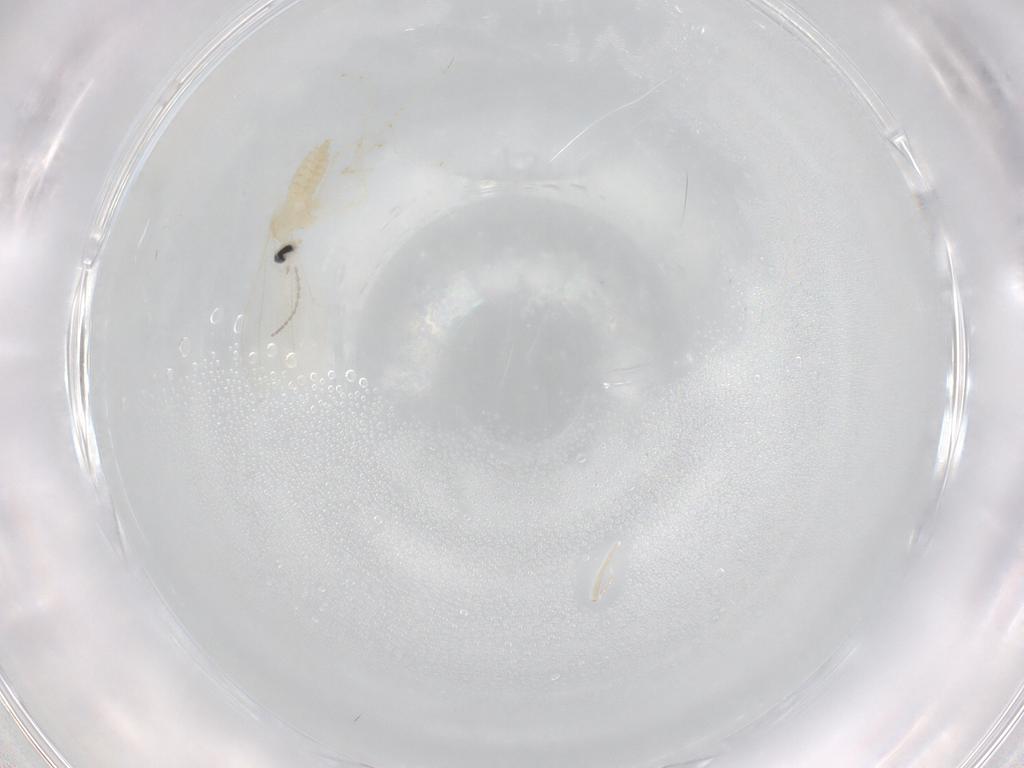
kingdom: Animalia
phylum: Arthropoda
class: Insecta
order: Diptera
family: Cecidomyiidae
